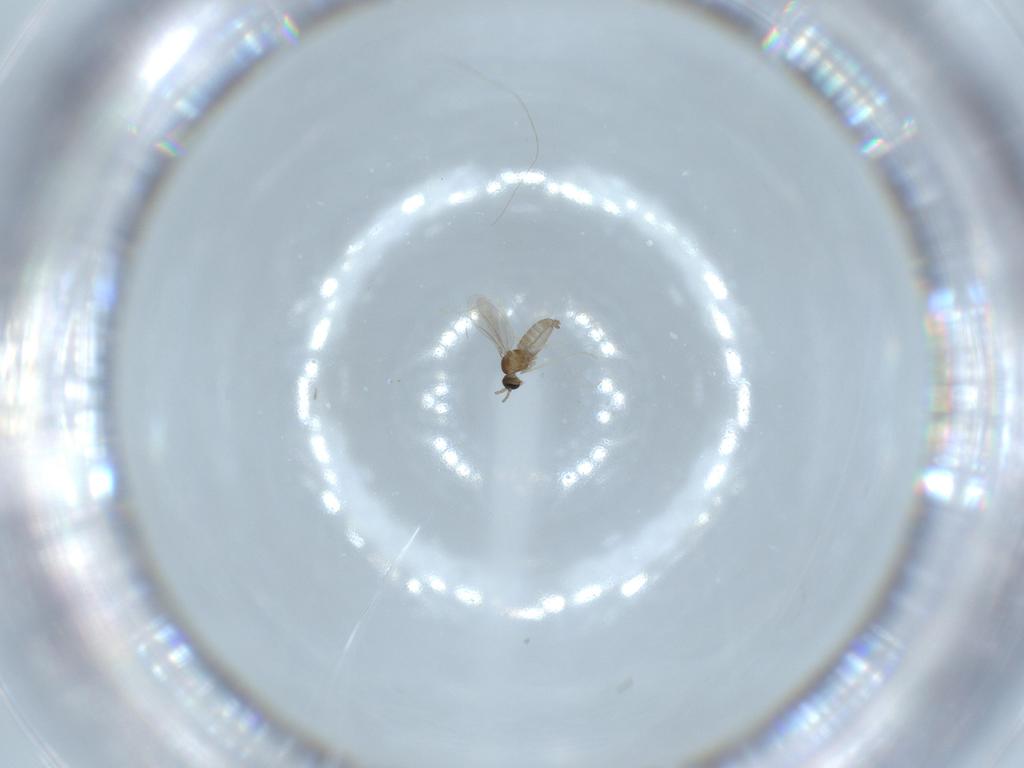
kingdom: Animalia
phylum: Arthropoda
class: Insecta
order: Diptera
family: Cecidomyiidae
